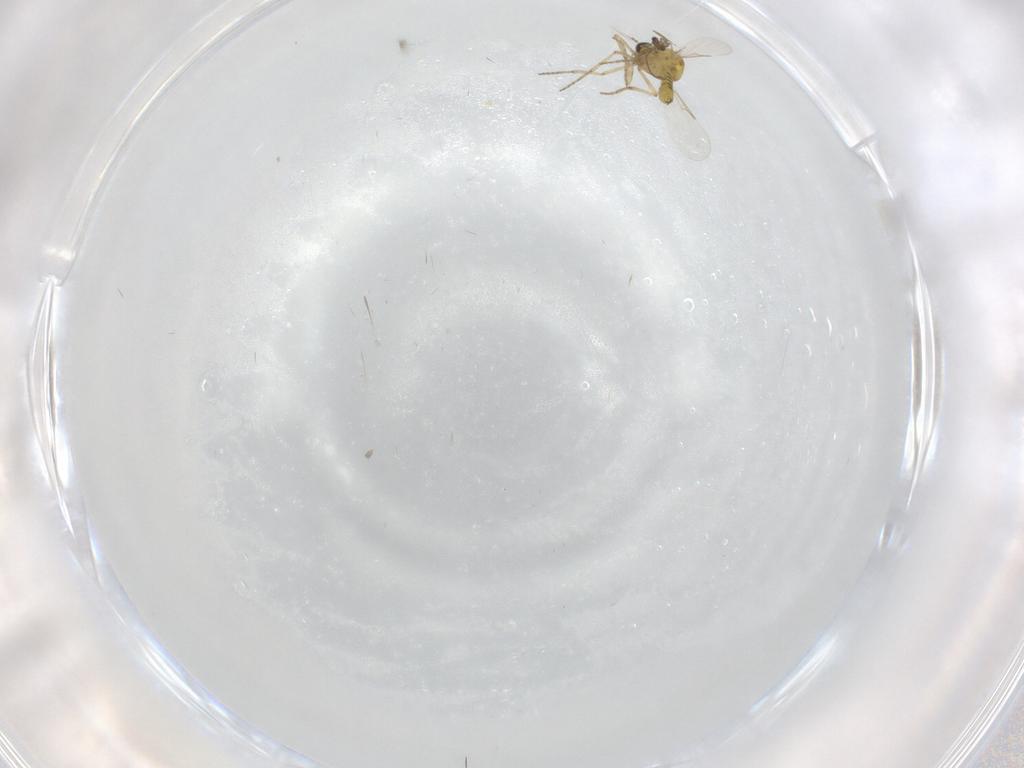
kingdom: Animalia
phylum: Arthropoda
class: Insecta
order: Diptera
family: Ceratopogonidae
